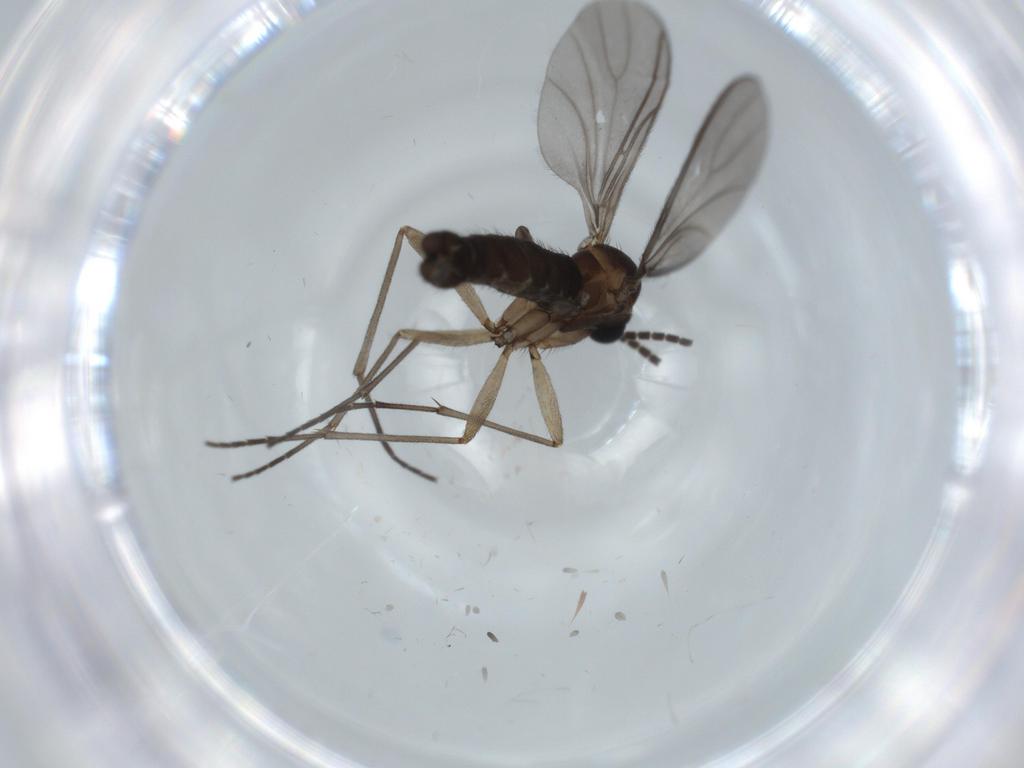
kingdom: Animalia
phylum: Arthropoda
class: Insecta
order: Diptera
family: Sciaridae
